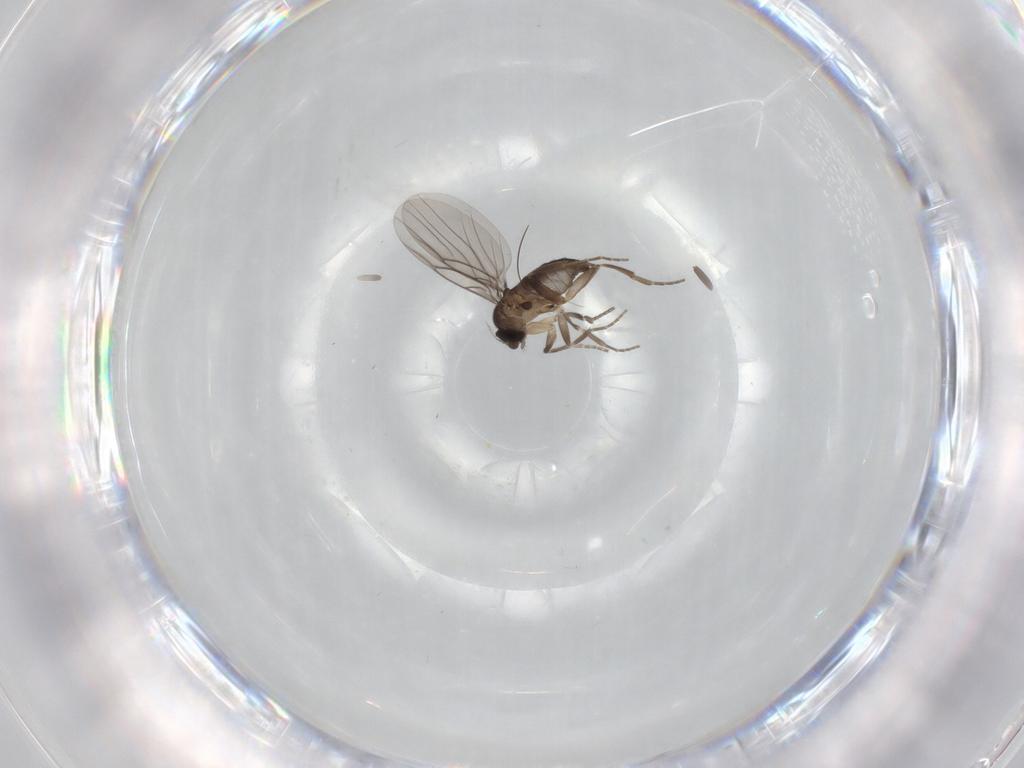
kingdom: Animalia
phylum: Arthropoda
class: Insecta
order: Diptera
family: Phoridae
